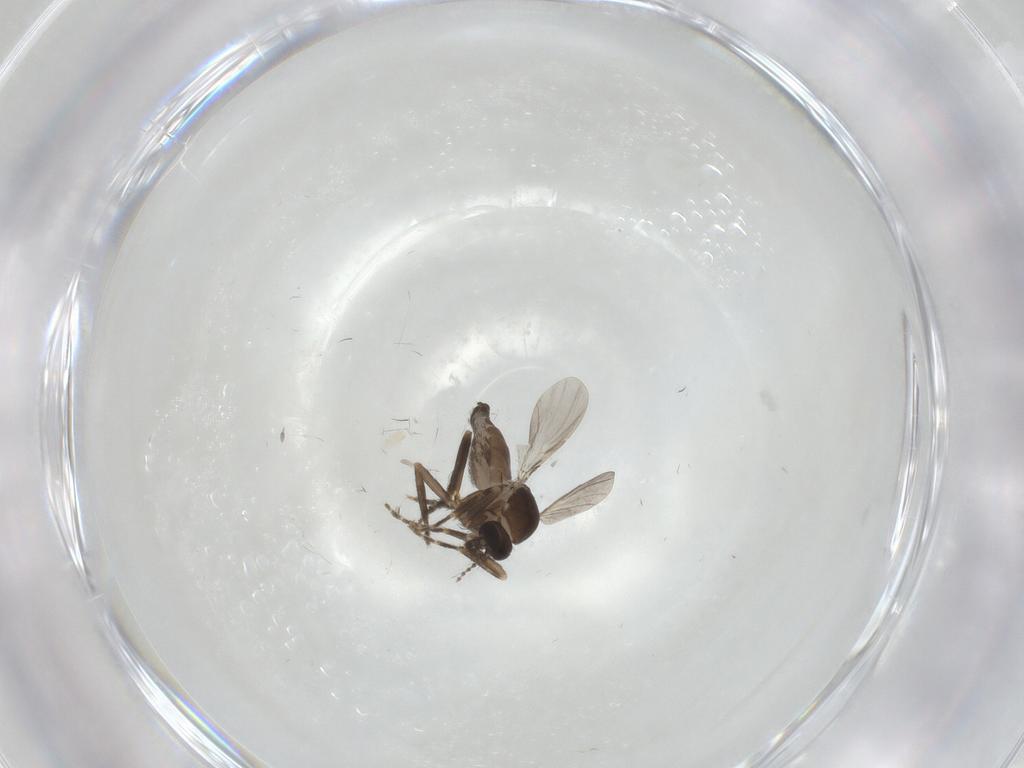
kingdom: Animalia
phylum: Arthropoda
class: Insecta
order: Diptera
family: Ceratopogonidae
